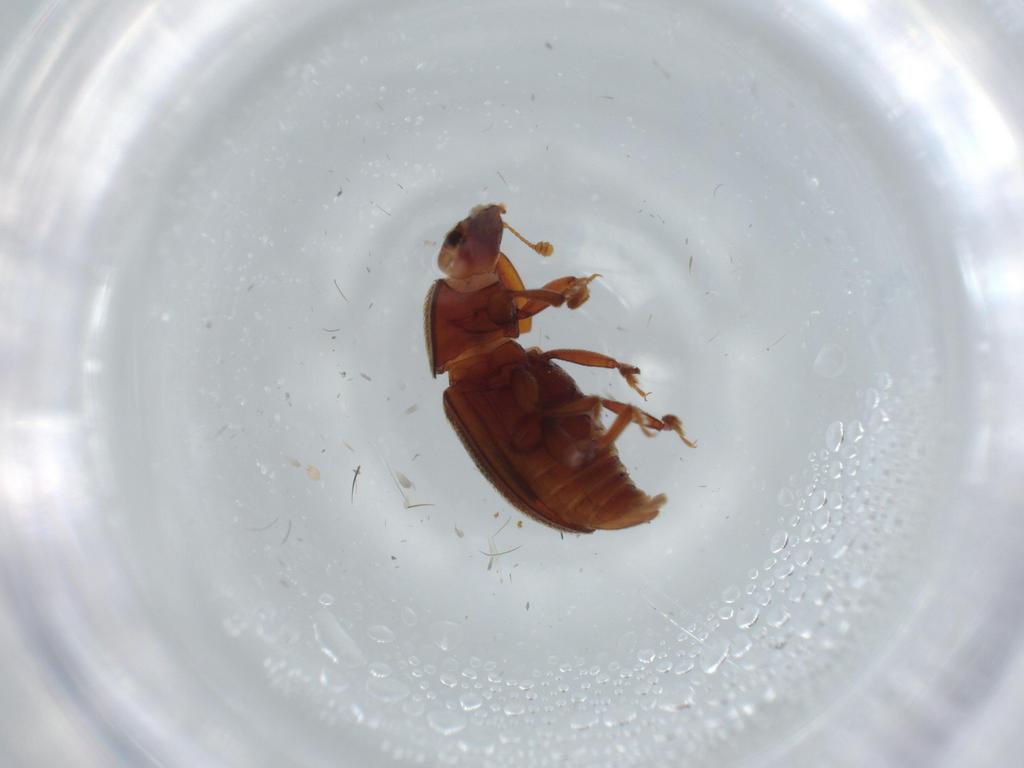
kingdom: Animalia
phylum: Arthropoda
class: Insecta
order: Coleoptera
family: Nitidulidae
